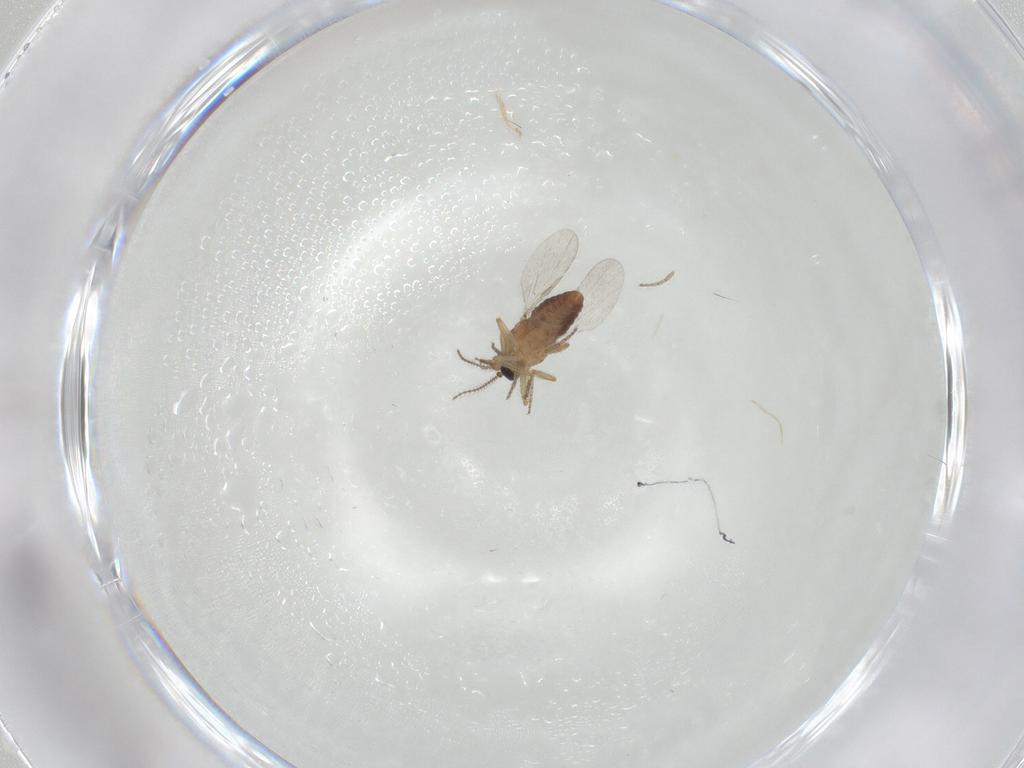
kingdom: Animalia
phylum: Arthropoda
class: Insecta
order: Diptera
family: Ceratopogonidae
